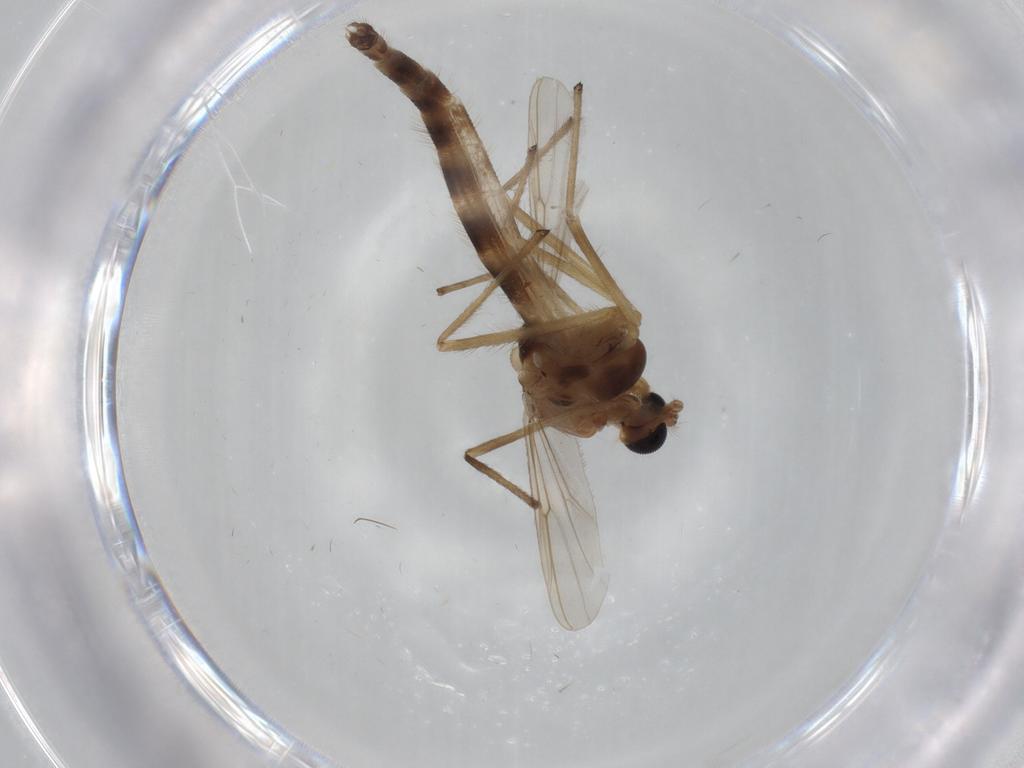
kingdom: Animalia
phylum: Arthropoda
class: Insecta
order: Diptera
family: Chironomidae
